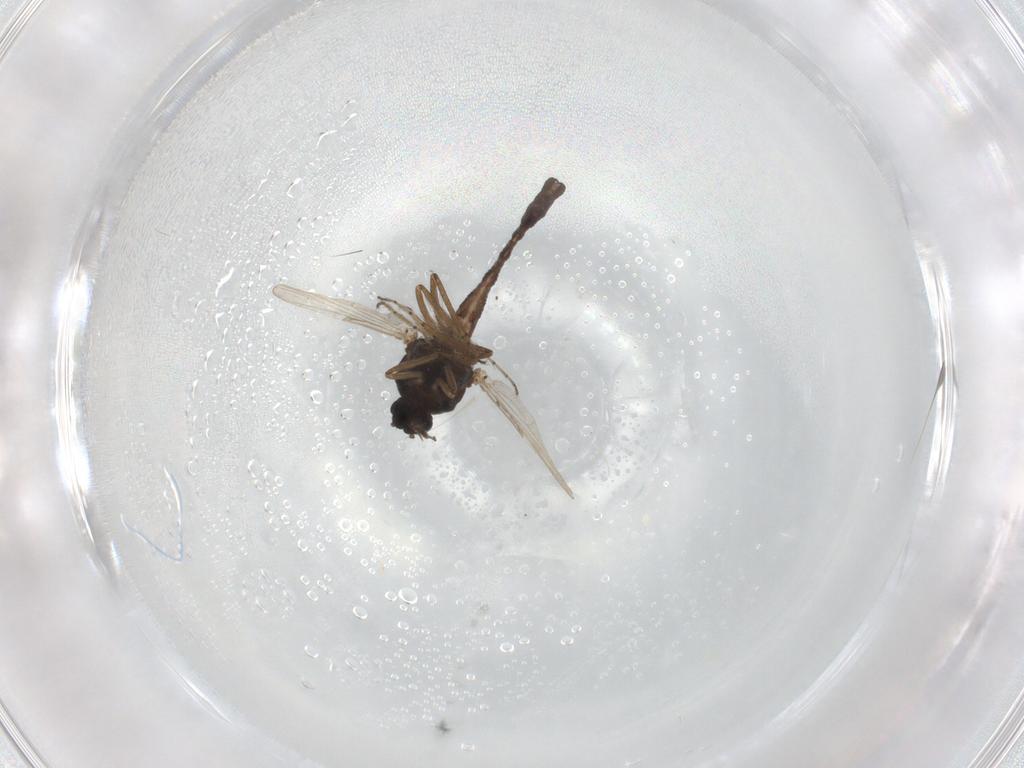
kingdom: Animalia
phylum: Arthropoda
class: Insecta
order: Diptera
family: Ceratopogonidae
